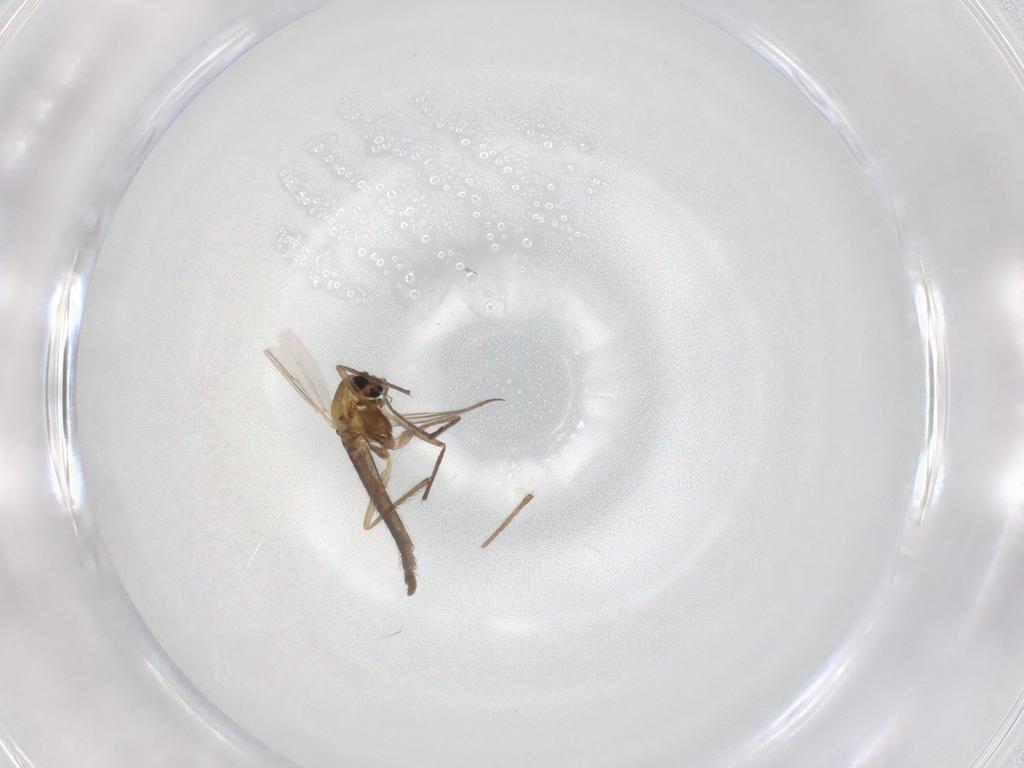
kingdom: Animalia
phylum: Arthropoda
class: Insecta
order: Diptera
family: Chironomidae
